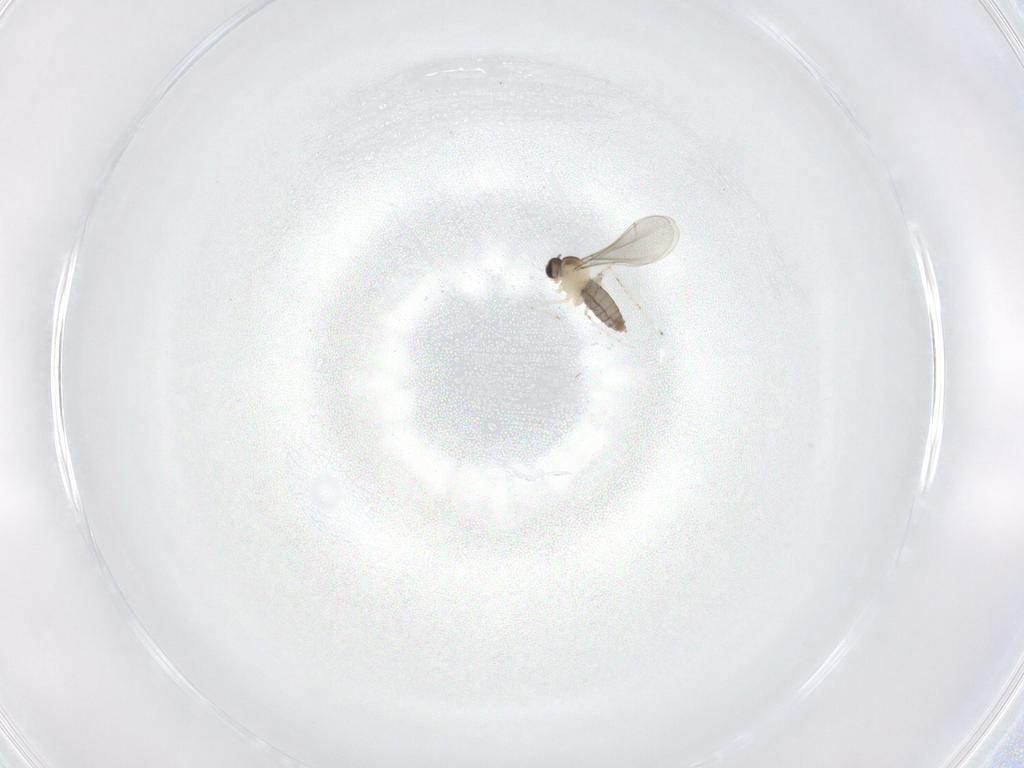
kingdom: Animalia
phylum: Arthropoda
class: Insecta
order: Diptera
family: Cecidomyiidae
